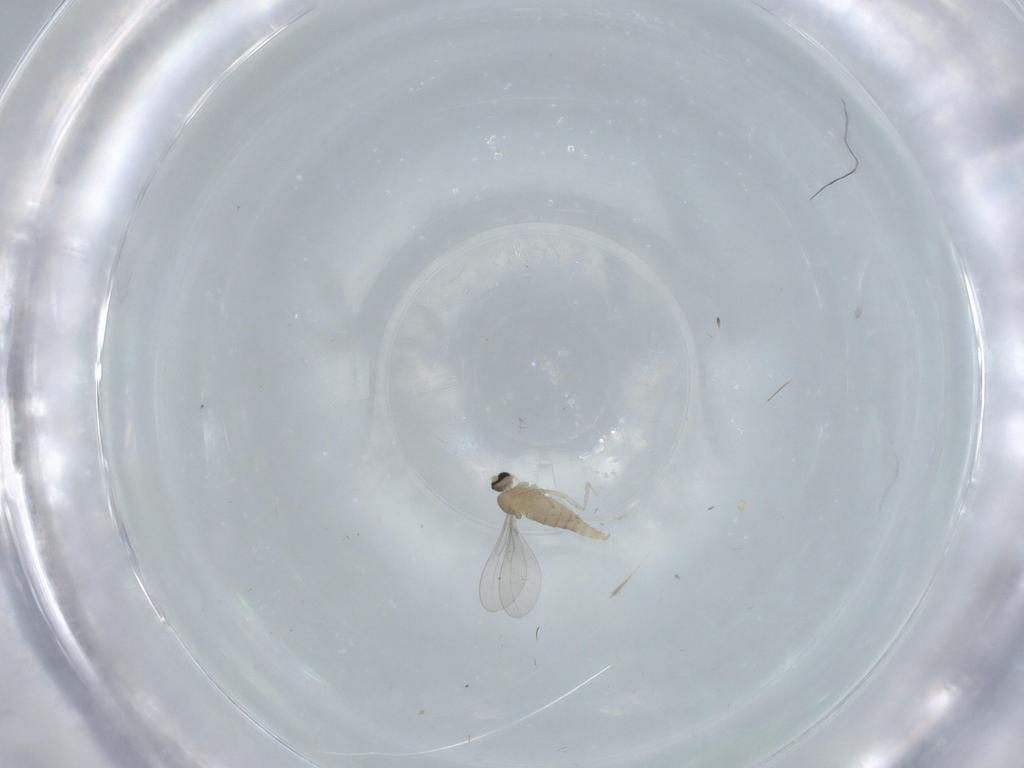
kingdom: Animalia
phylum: Arthropoda
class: Insecta
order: Diptera
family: Cecidomyiidae
